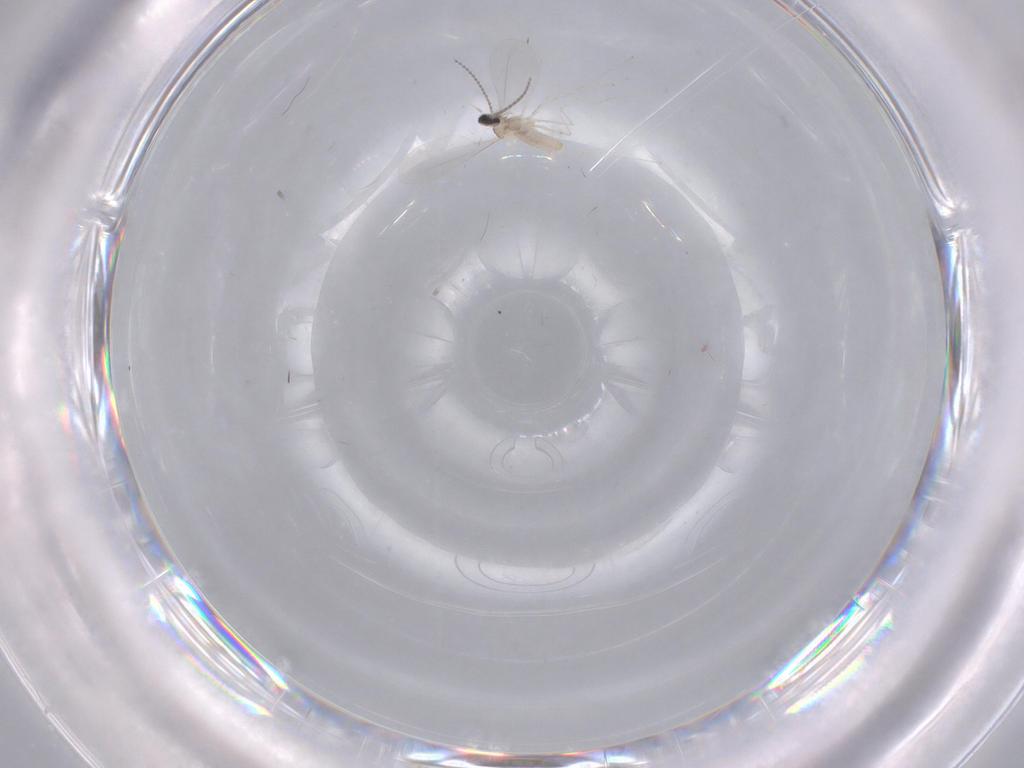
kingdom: Animalia
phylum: Arthropoda
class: Insecta
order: Diptera
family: Cecidomyiidae
